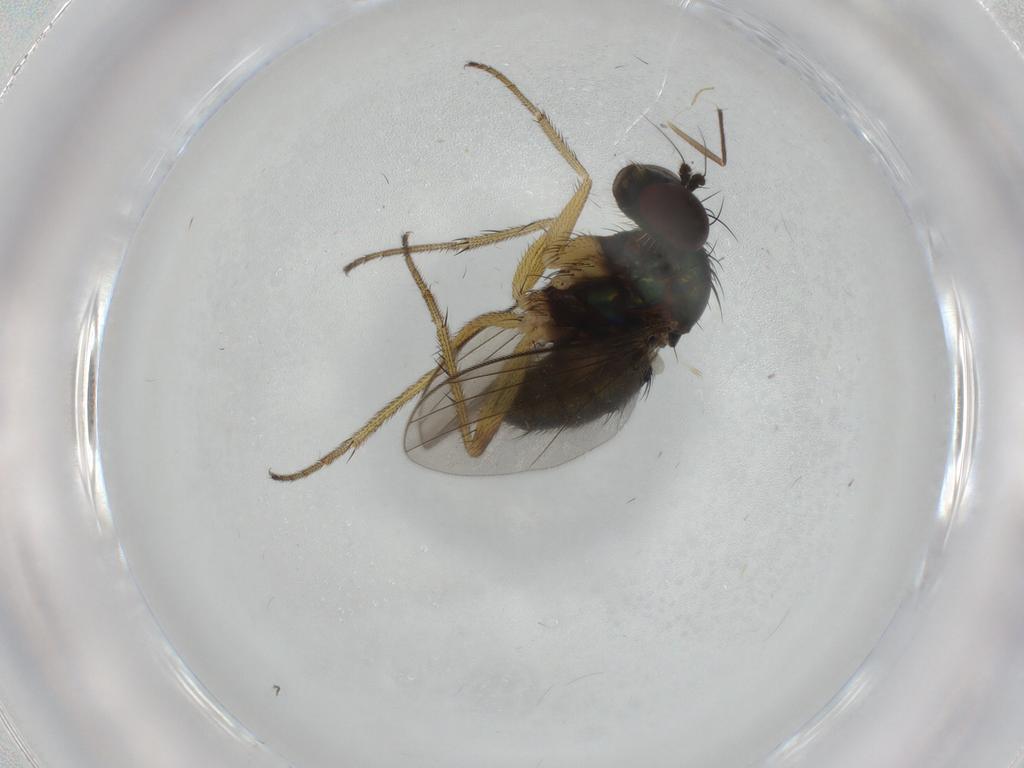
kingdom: Animalia
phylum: Arthropoda
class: Insecta
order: Diptera
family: Dolichopodidae
